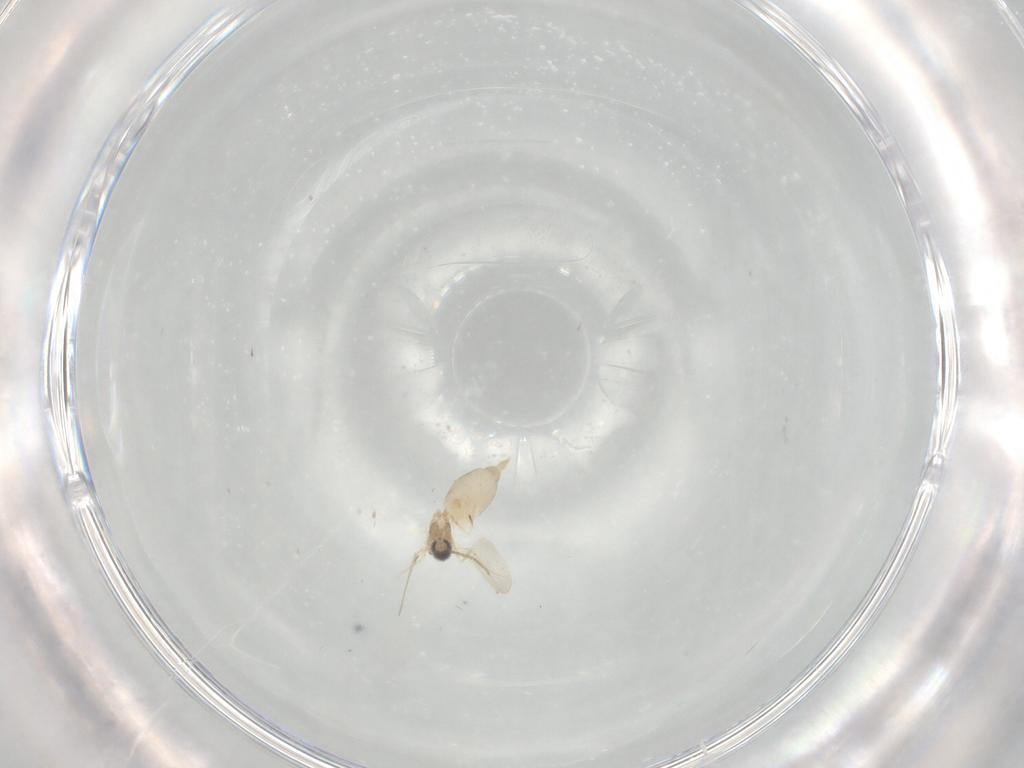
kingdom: Animalia
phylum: Arthropoda
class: Insecta
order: Diptera
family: Cecidomyiidae
